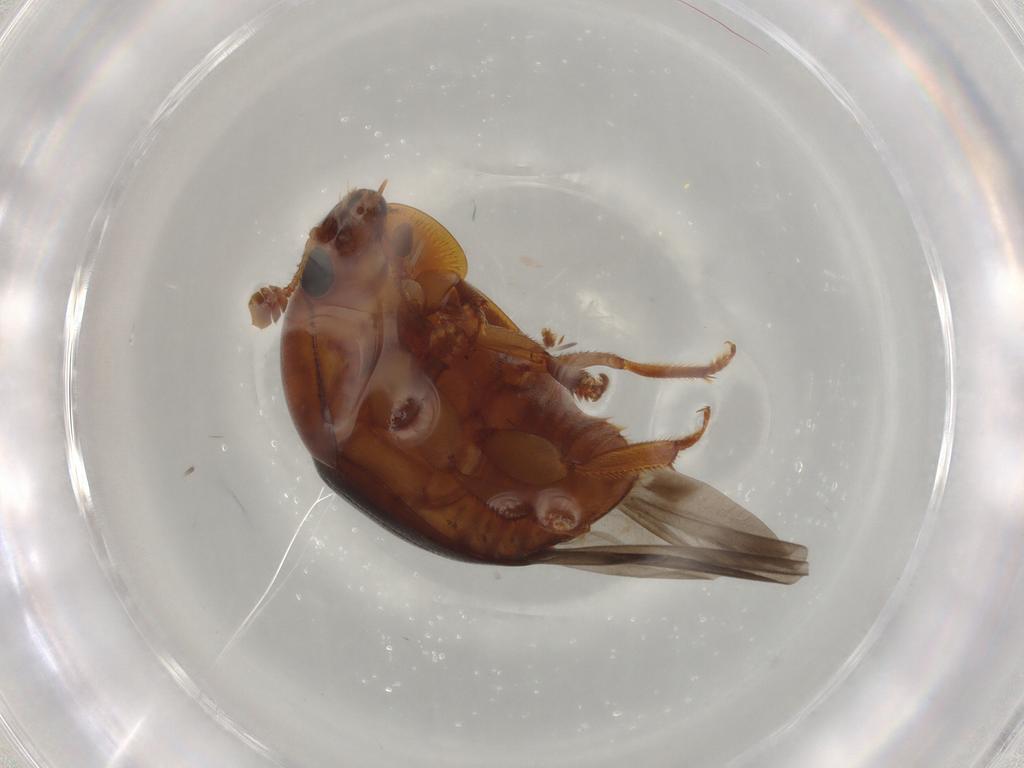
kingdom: Animalia
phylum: Arthropoda
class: Insecta
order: Coleoptera
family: Nitidulidae
